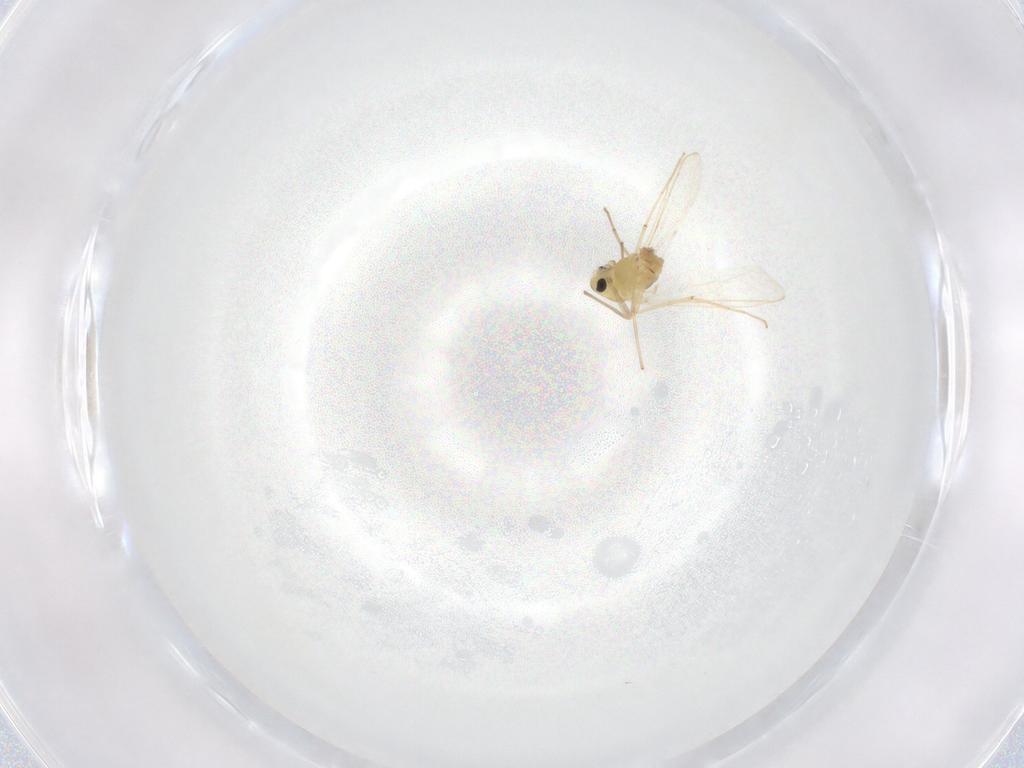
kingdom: Animalia
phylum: Arthropoda
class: Insecta
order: Diptera
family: Chironomidae
